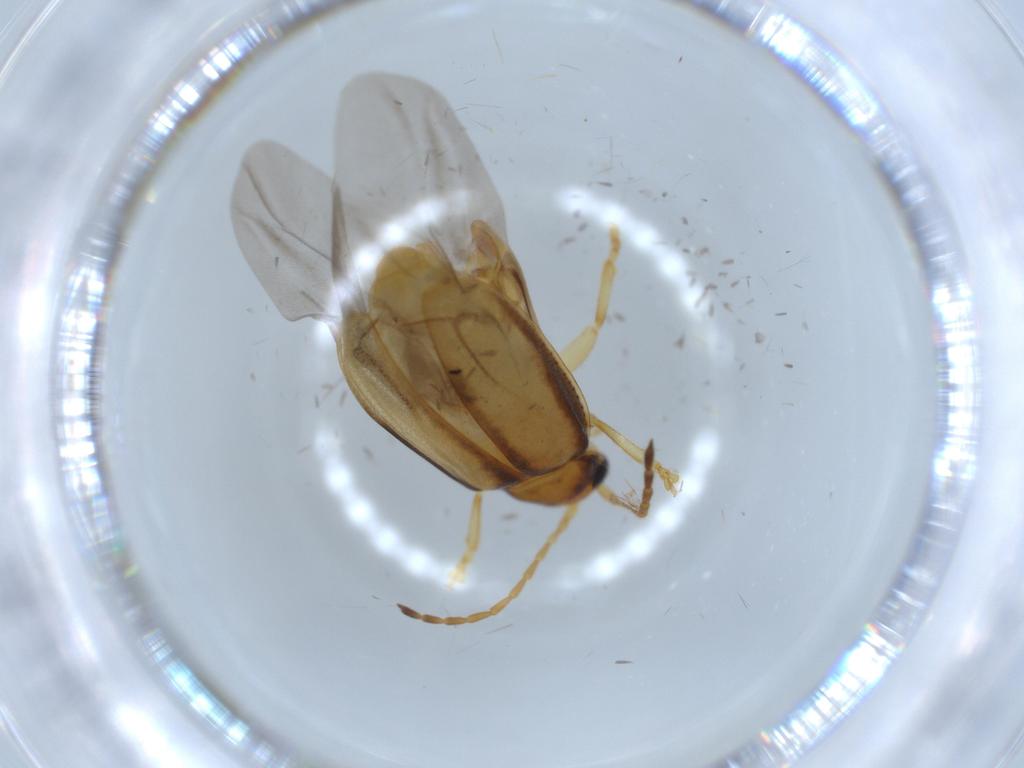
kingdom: Animalia
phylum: Arthropoda
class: Insecta
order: Coleoptera
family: Chrysomelidae
